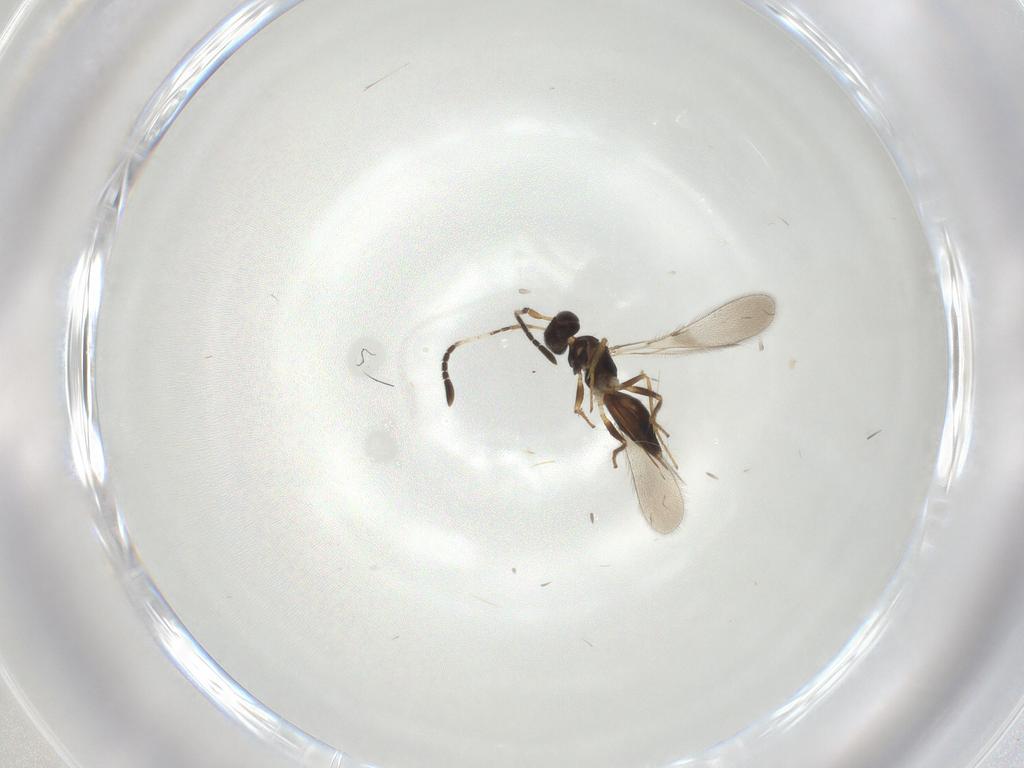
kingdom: Animalia
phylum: Arthropoda
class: Insecta
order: Hymenoptera
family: Mymaridae
